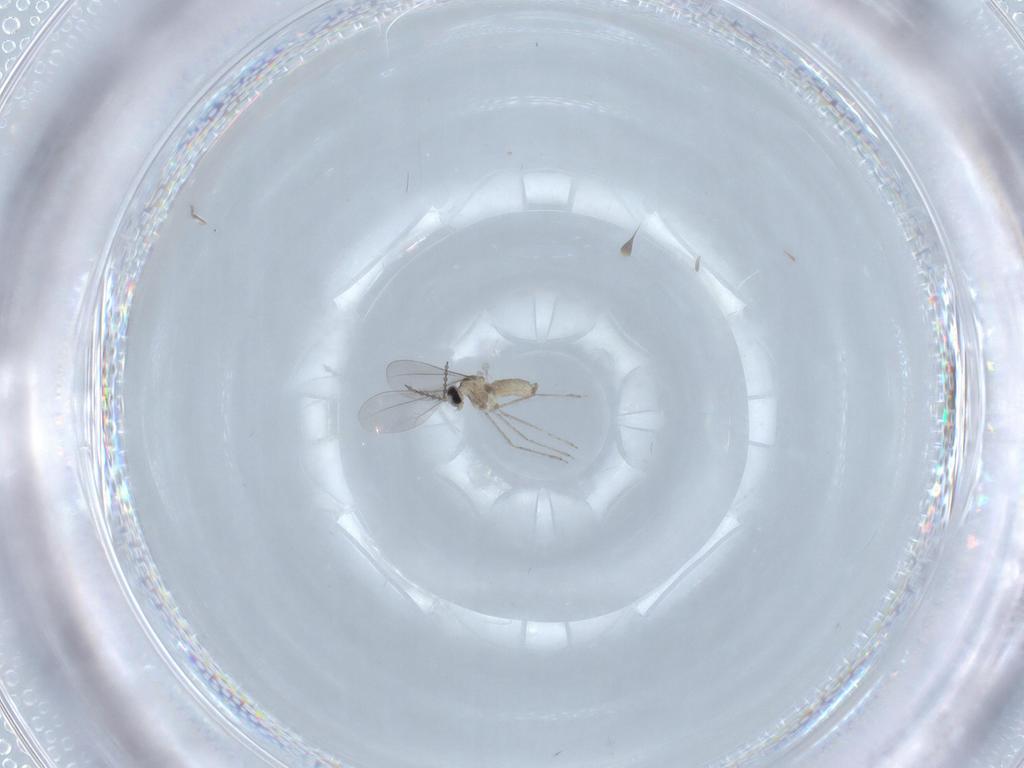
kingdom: Animalia
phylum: Arthropoda
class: Insecta
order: Diptera
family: Cecidomyiidae
